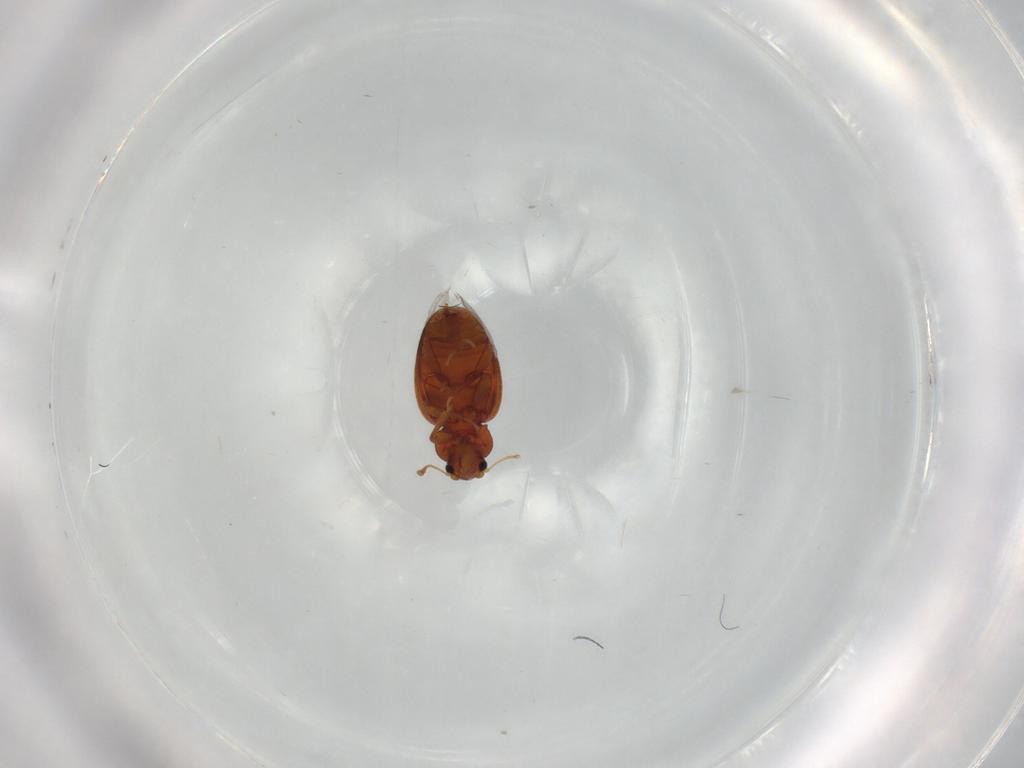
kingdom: Animalia
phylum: Arthropoda
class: Insecta
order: Coleoptera
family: Latridiidae
